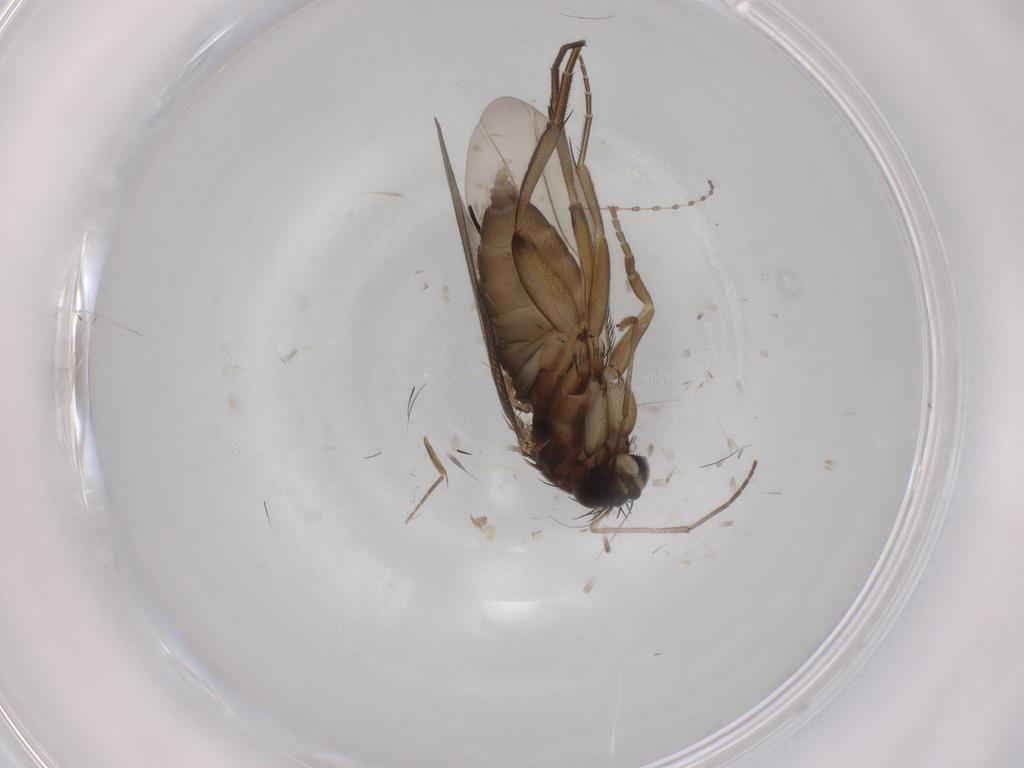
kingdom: Animalia
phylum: Arthropoda
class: Insecta
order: Diptera
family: Phoridae
